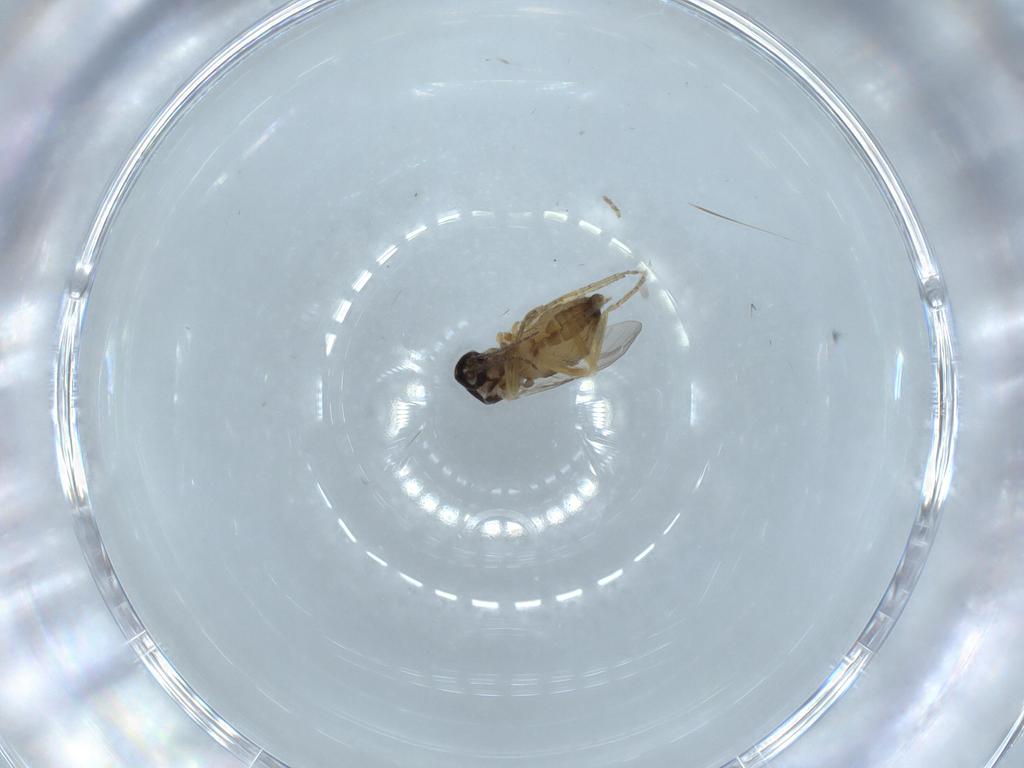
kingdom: Animalia
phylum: Arthropoda
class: Insecta
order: Diptera
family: Ceratopogonidae
